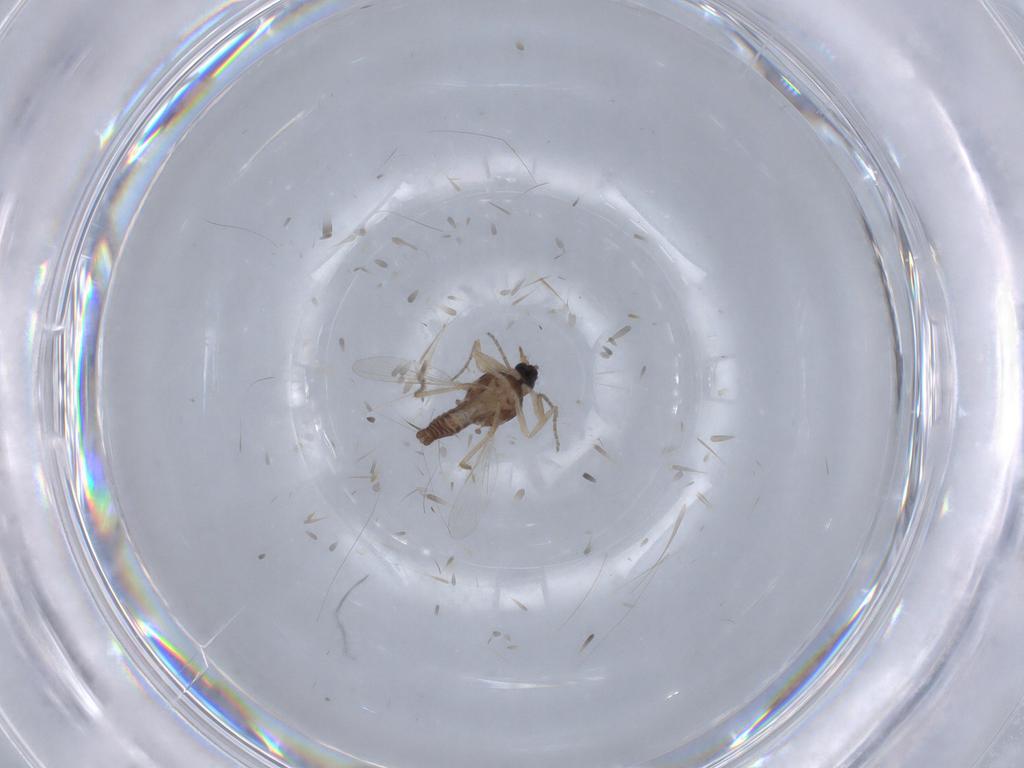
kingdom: Animalia
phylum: Arthropoda
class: Insecta
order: Diptera
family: Ceratopogonidae
